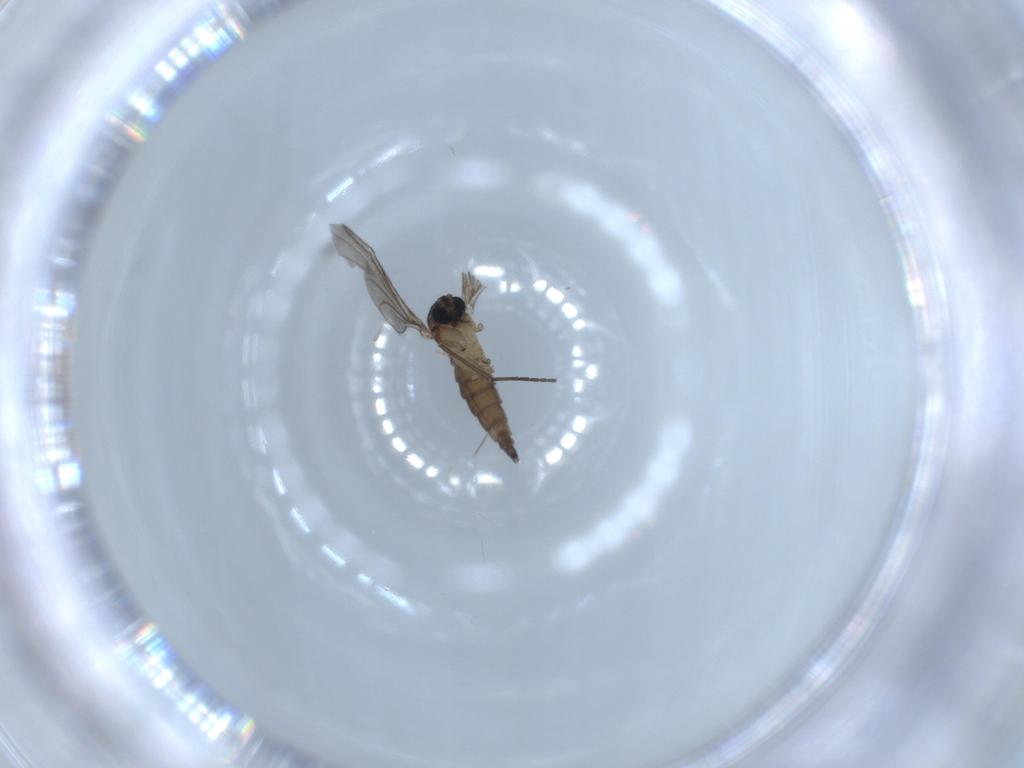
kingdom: Animalia
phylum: Arthropoda
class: Insecta
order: Diptera
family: Sciaridae
